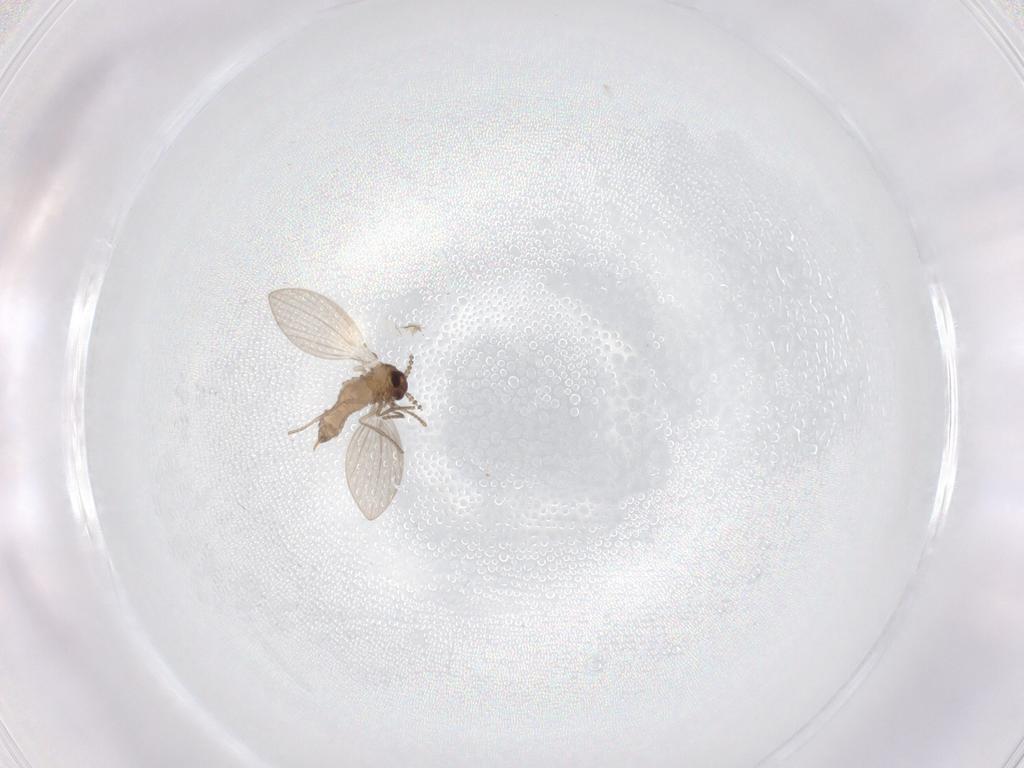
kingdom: Animalia
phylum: Arthropoda
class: Insecta
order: Diptera
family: Psychodidae
